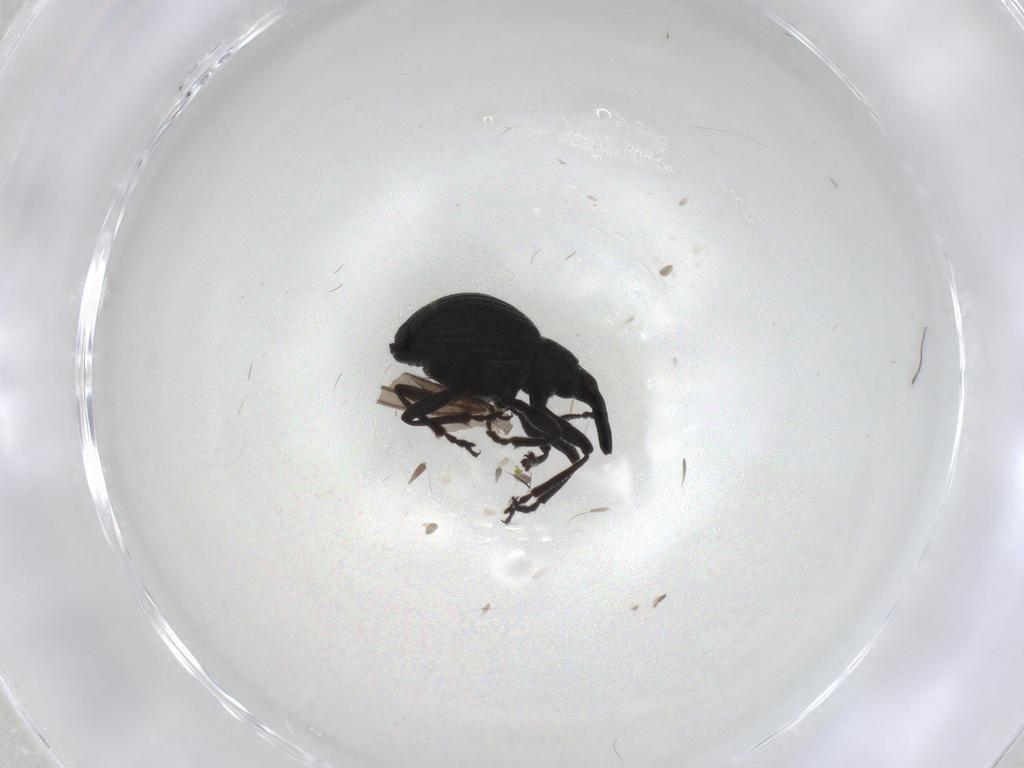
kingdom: Animalia
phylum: Arthropoda
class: Insecta
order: Coleoptera
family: Brentidae
